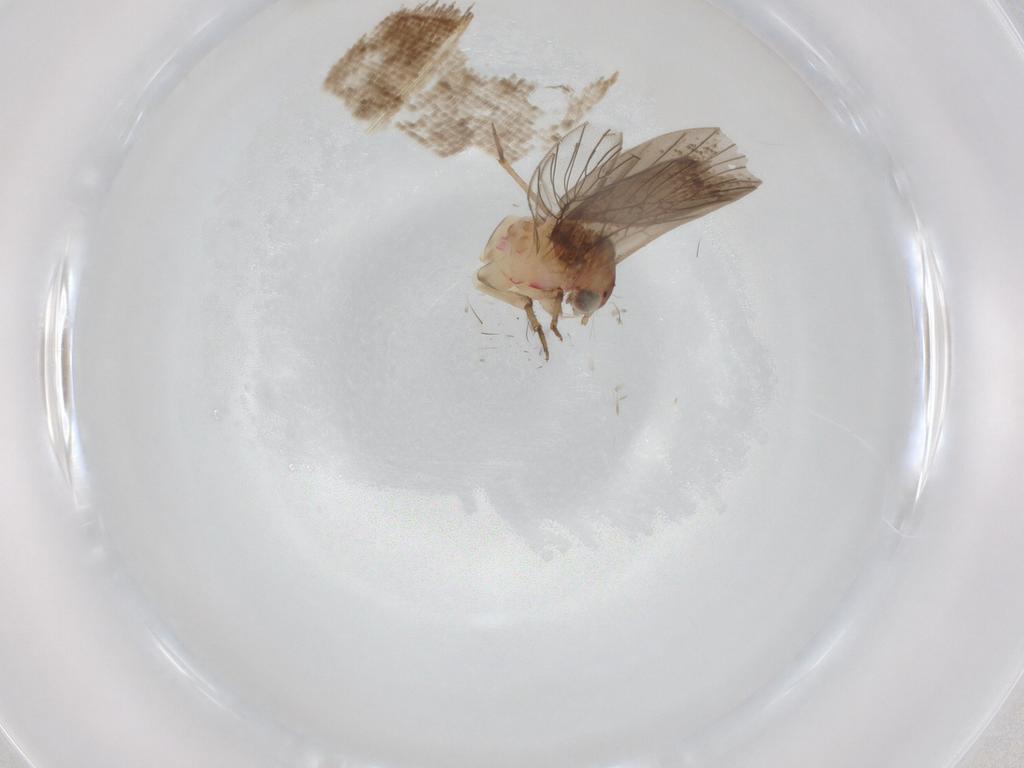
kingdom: Animalia
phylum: Arthropoda
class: Insecta
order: Psocodea
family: Lepidopsocidae
